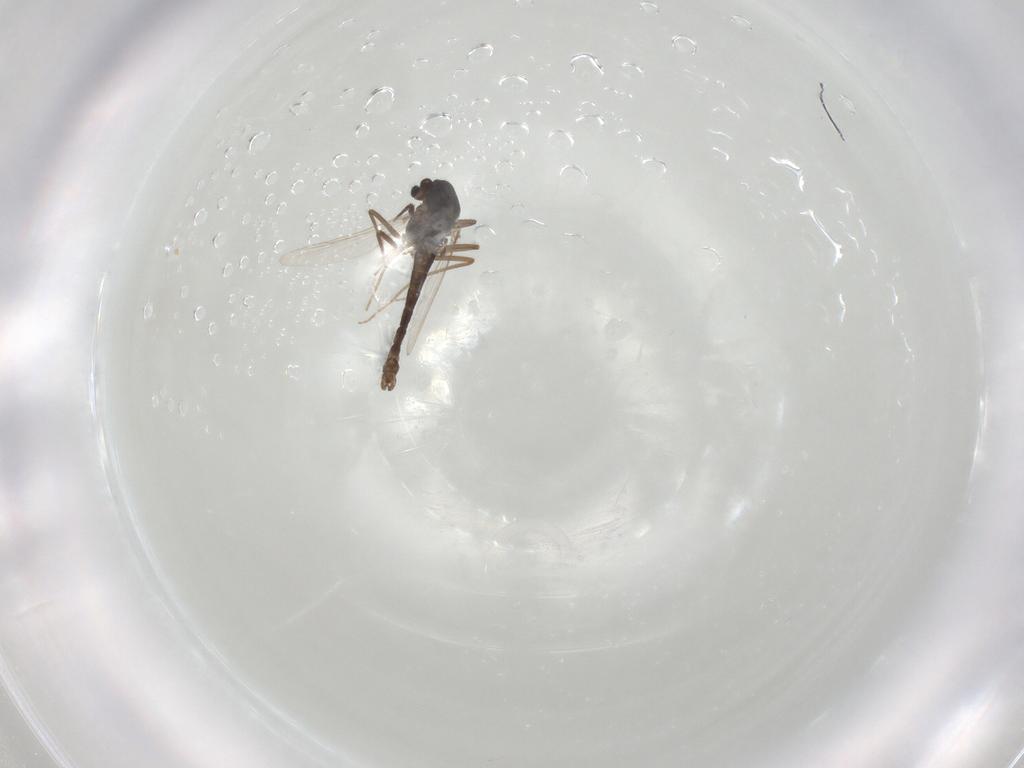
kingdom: Animalia
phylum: Arthropoda
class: Insecta
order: Diptera
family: Chironomidae
